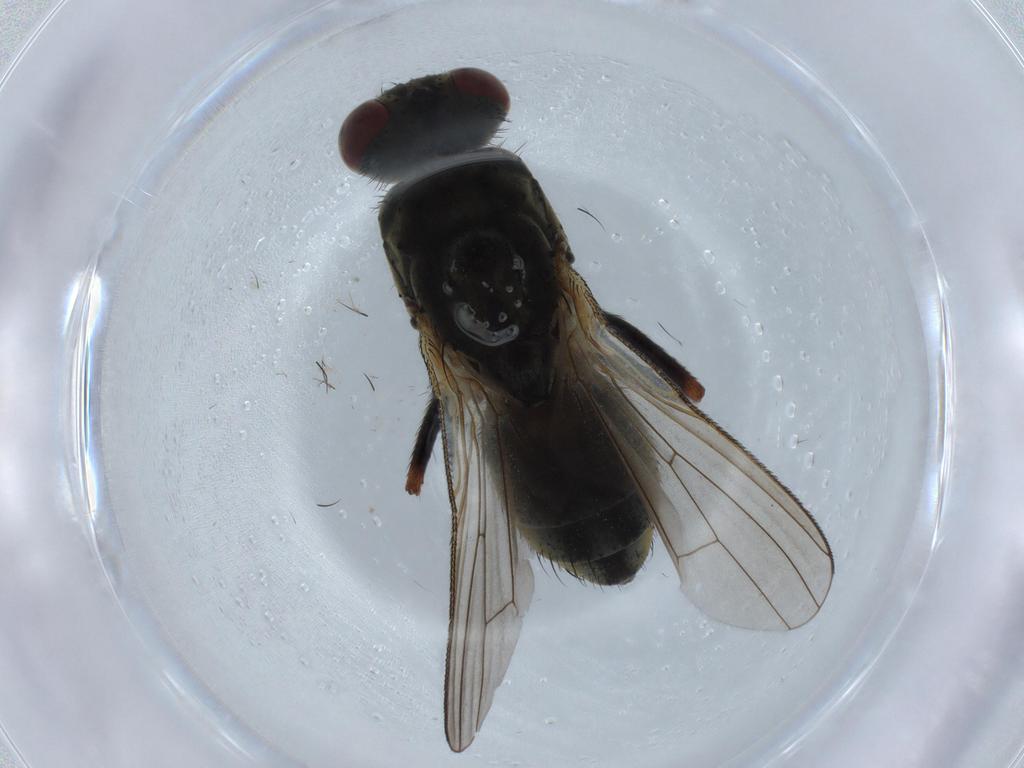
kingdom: Animalia
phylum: Arthropoda
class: Insecta
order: Diptera
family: Cecidomyiidae
